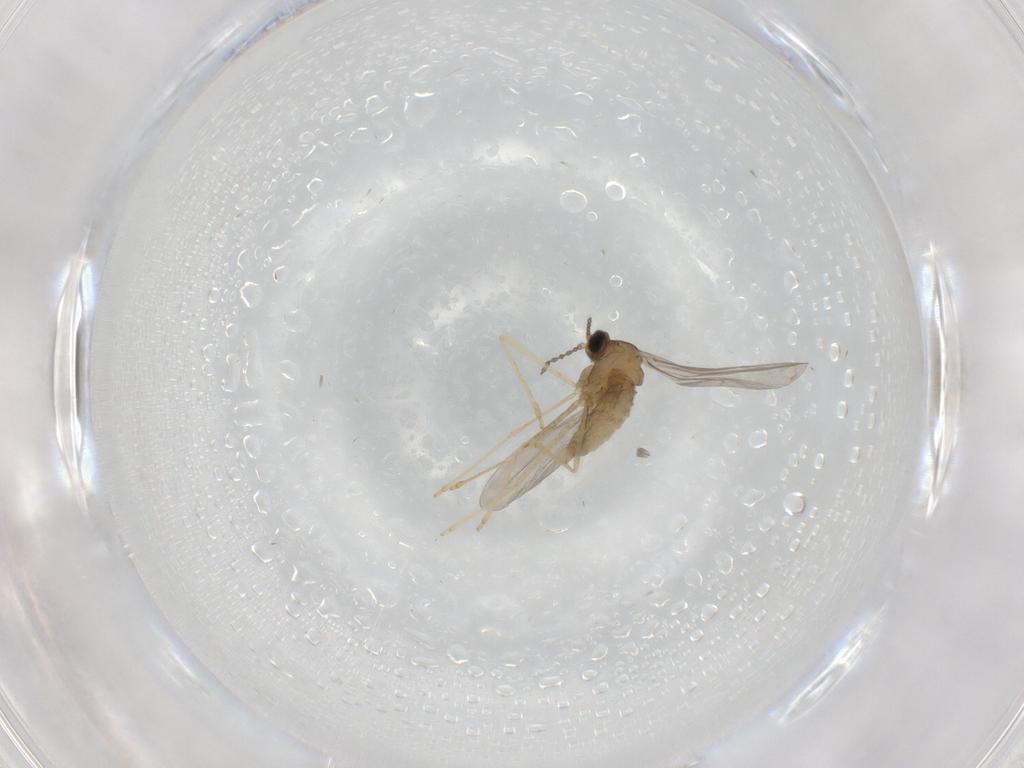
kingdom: Animalia
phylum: Arthropoda
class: Insecta
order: Diptera
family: Cecidomyiidae
